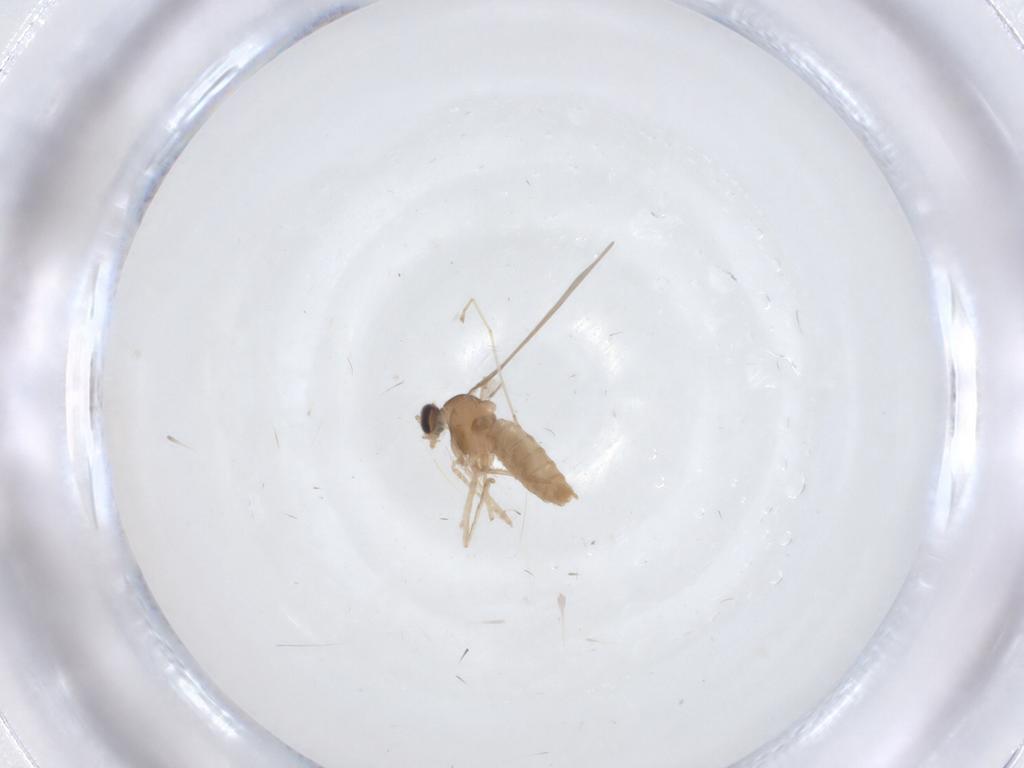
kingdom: Animalia
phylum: Arthropoda
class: Insecta
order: Diptera
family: Cecidomyiidae
